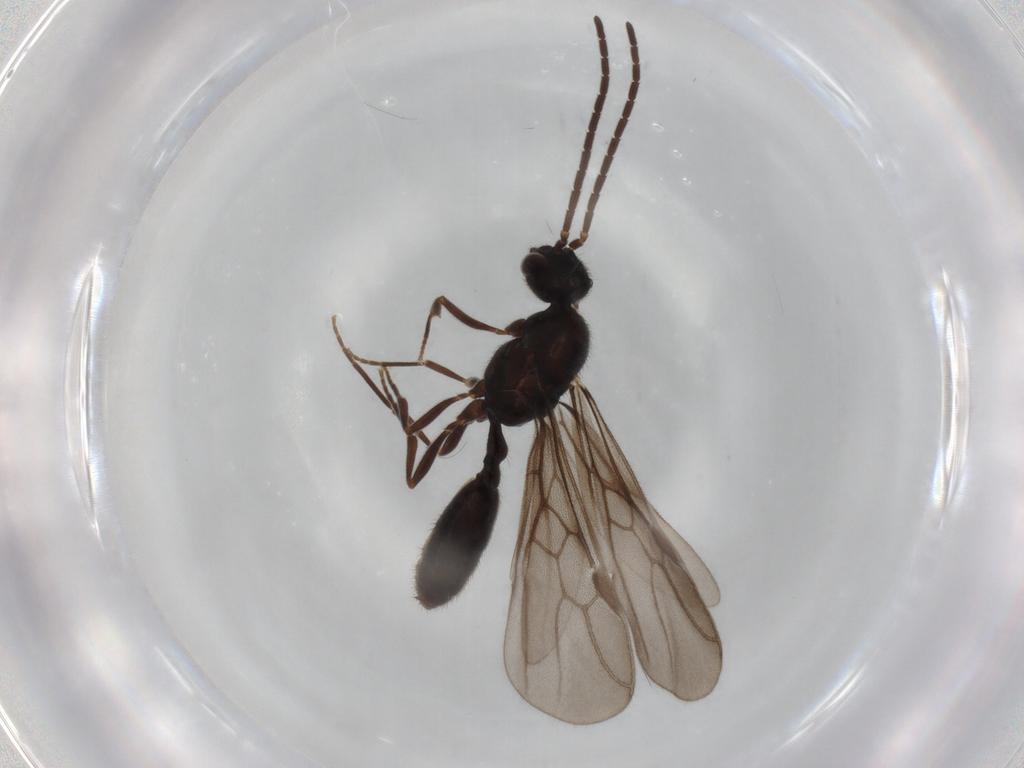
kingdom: Animalia
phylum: Arthropoda
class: Insecta
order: Hymenoptera
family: Formicidae
